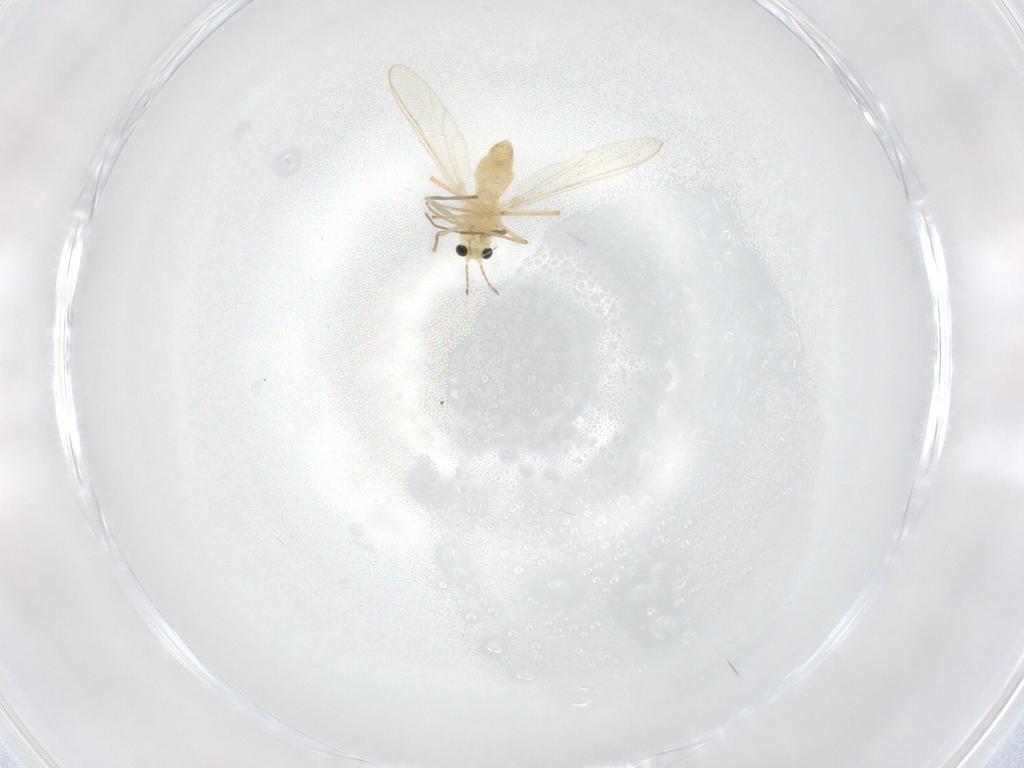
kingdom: Animalia
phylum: Arthropoda
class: Insecta
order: Diptera
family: Chironomidae
